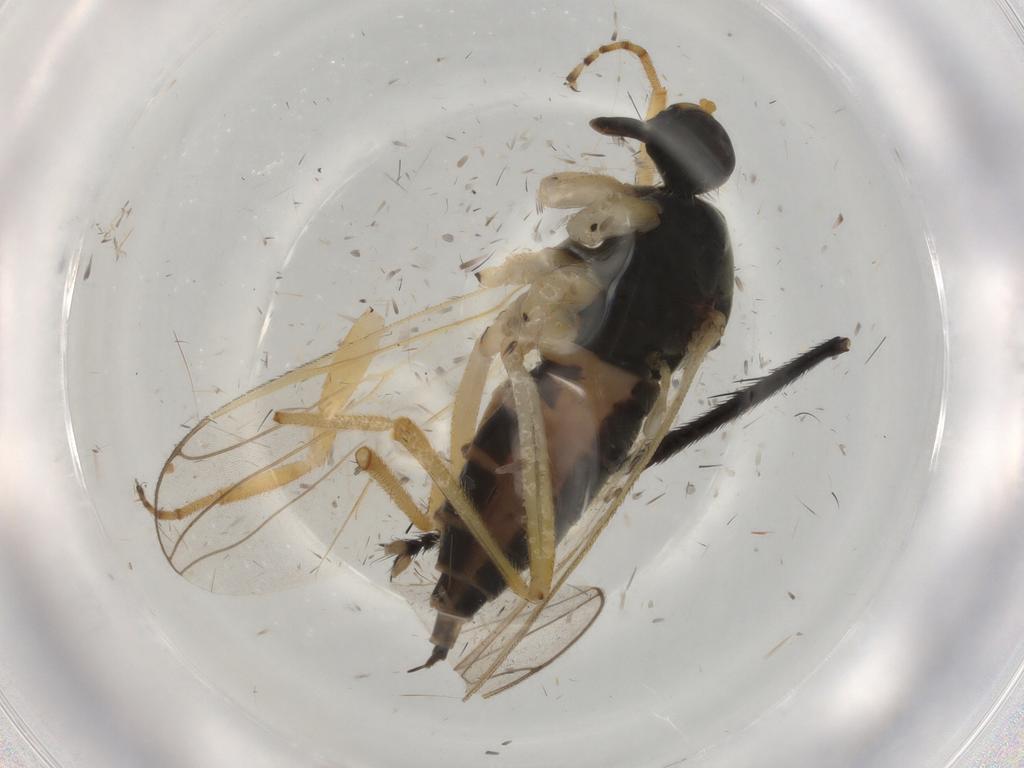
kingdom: Animalia
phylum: Arthropoda
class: Insecta
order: Diptera
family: Hybotidae
